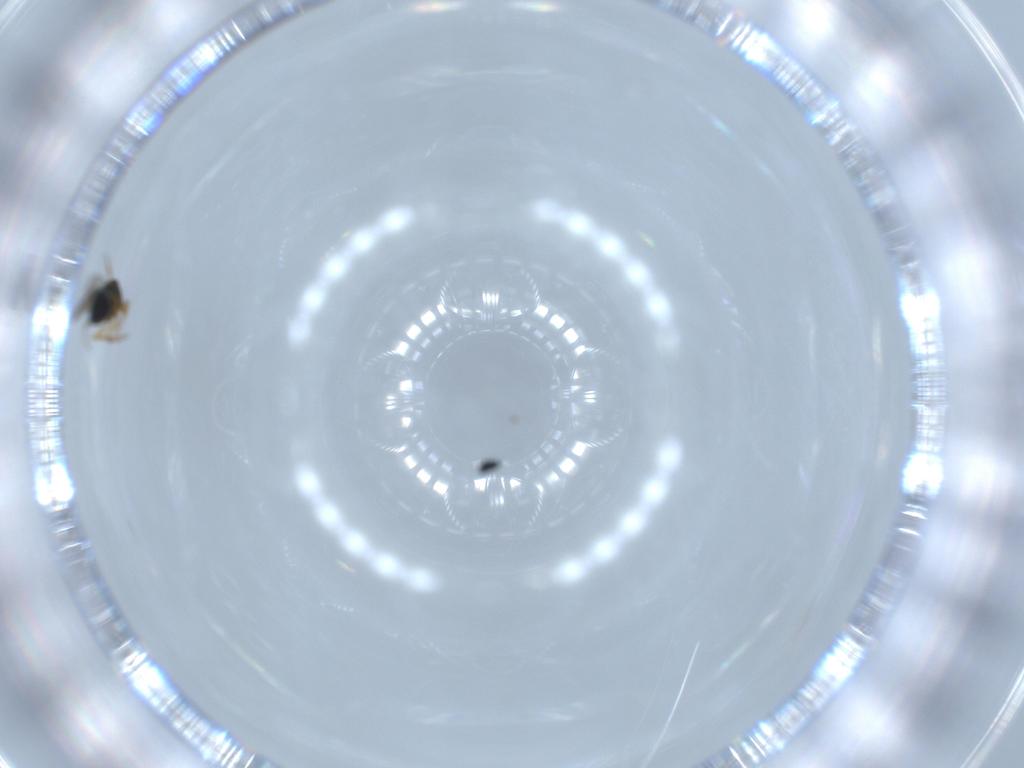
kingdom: Animalia
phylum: Arthropoda
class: Insecta
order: Hymenoptera
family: Scelionidae
